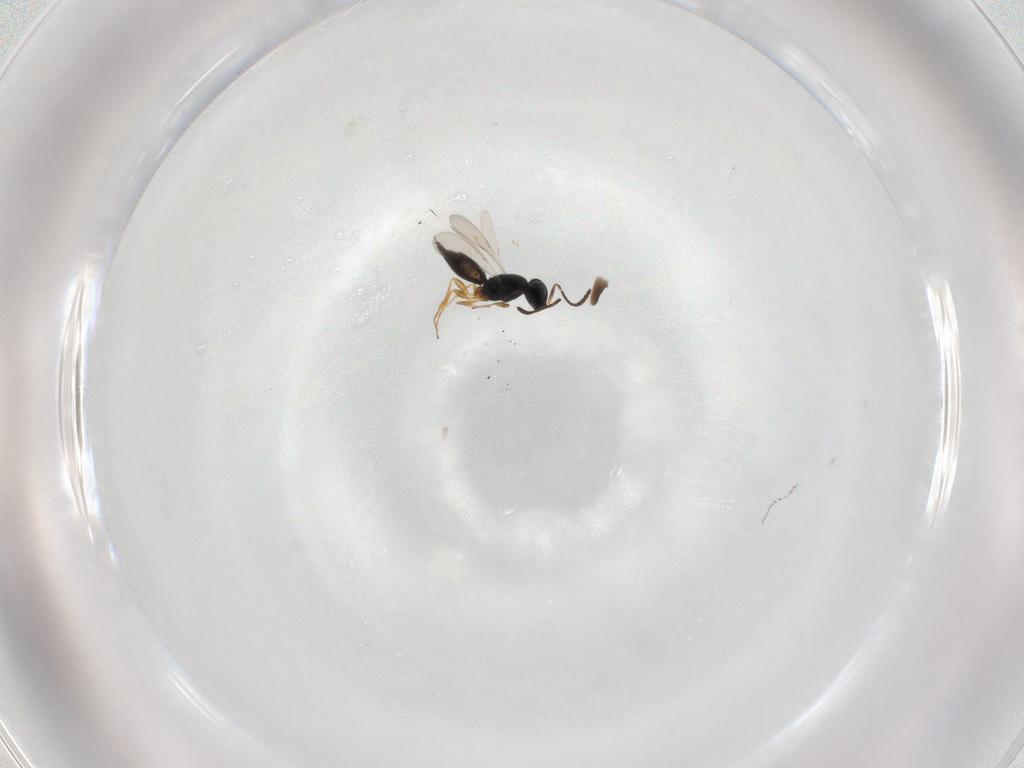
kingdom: Animalia
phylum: Arthropoda
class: Insecta
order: Hymenoptera
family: Scelionidae
